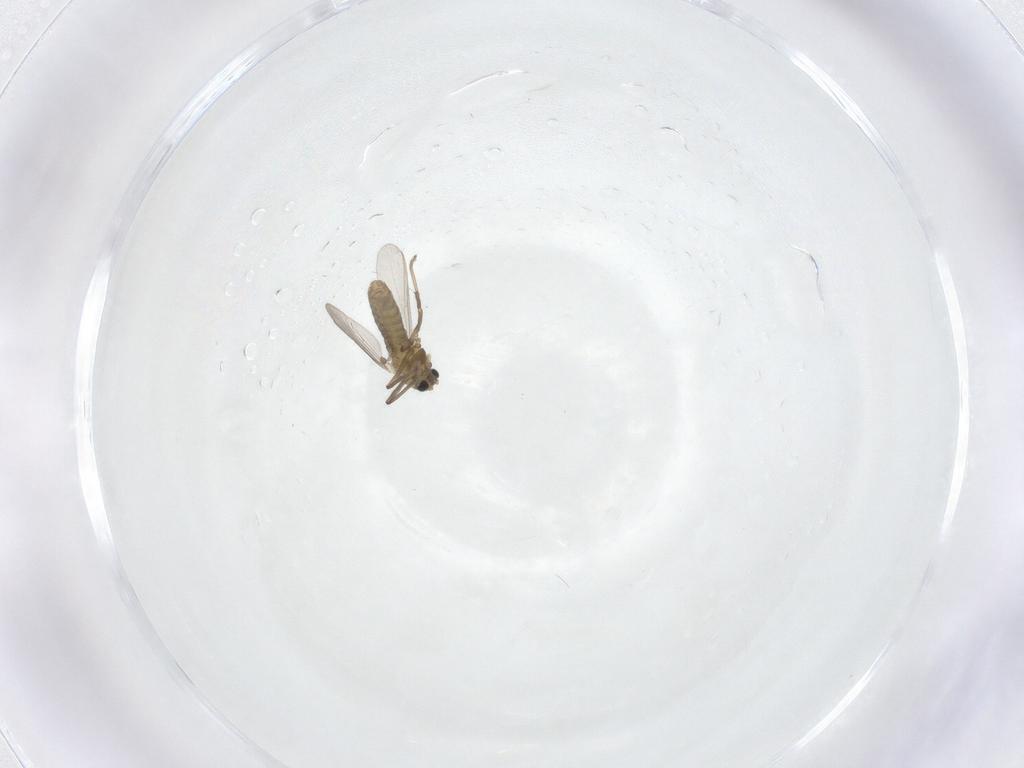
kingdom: Animalia
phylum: Arthropoda
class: Insecta
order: Diptera
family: Chironomidae
